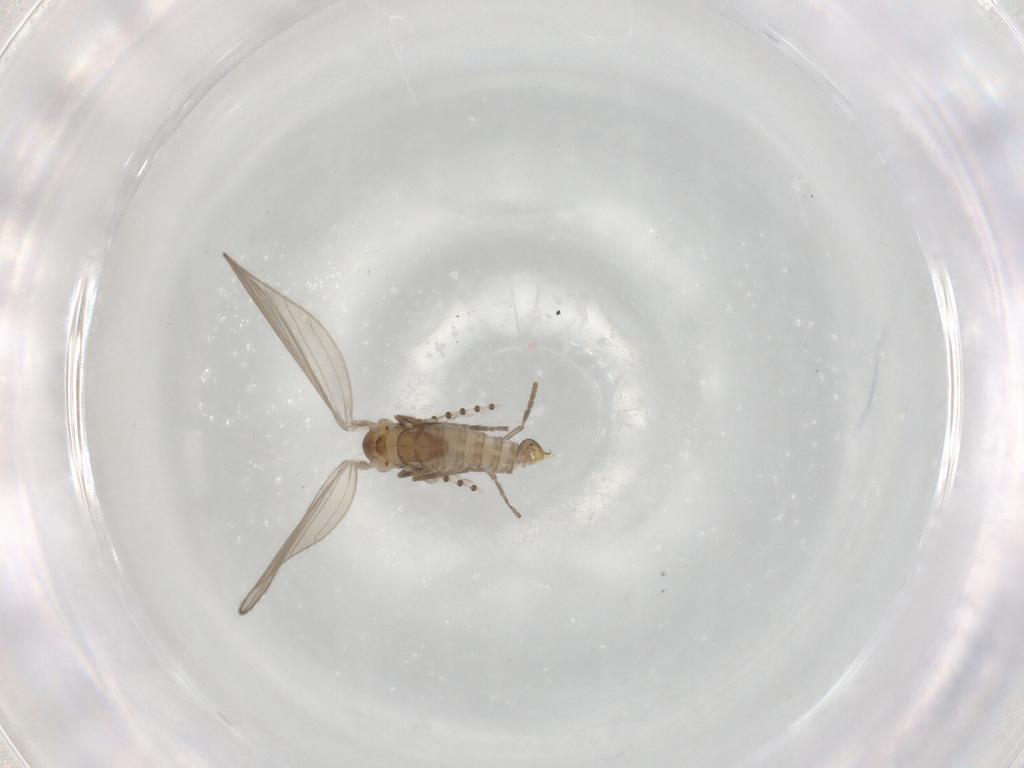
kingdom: Animalia
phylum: Arthropoda
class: Insecta
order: Diptera
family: Psychodidae
